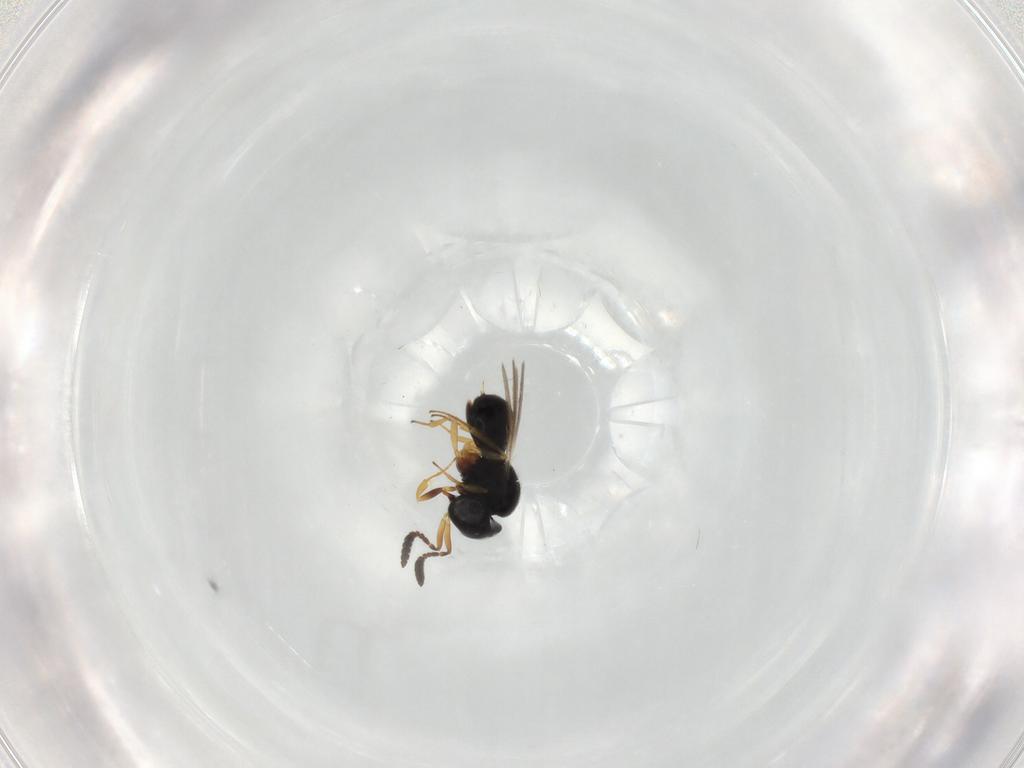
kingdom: Animalia
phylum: Arthropoda
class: Insecta
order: Hymenoptera
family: Scelionidae
